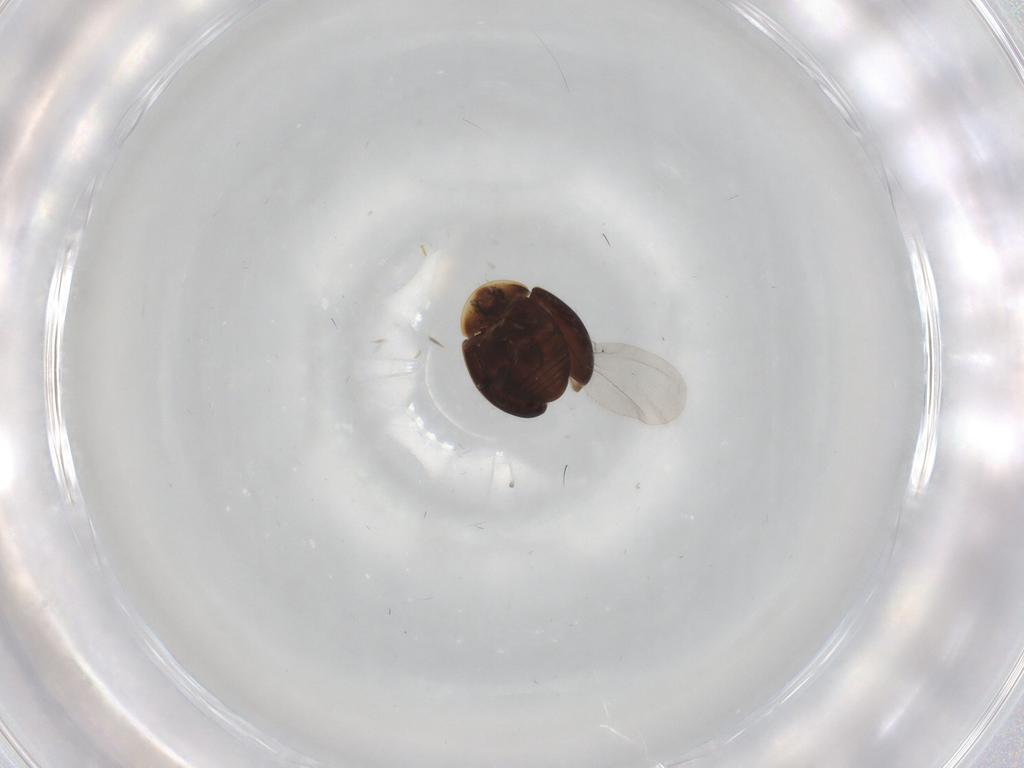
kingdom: Animalia
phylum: Arthropoda
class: Insecta
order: Coleoptera
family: Corylophidae
